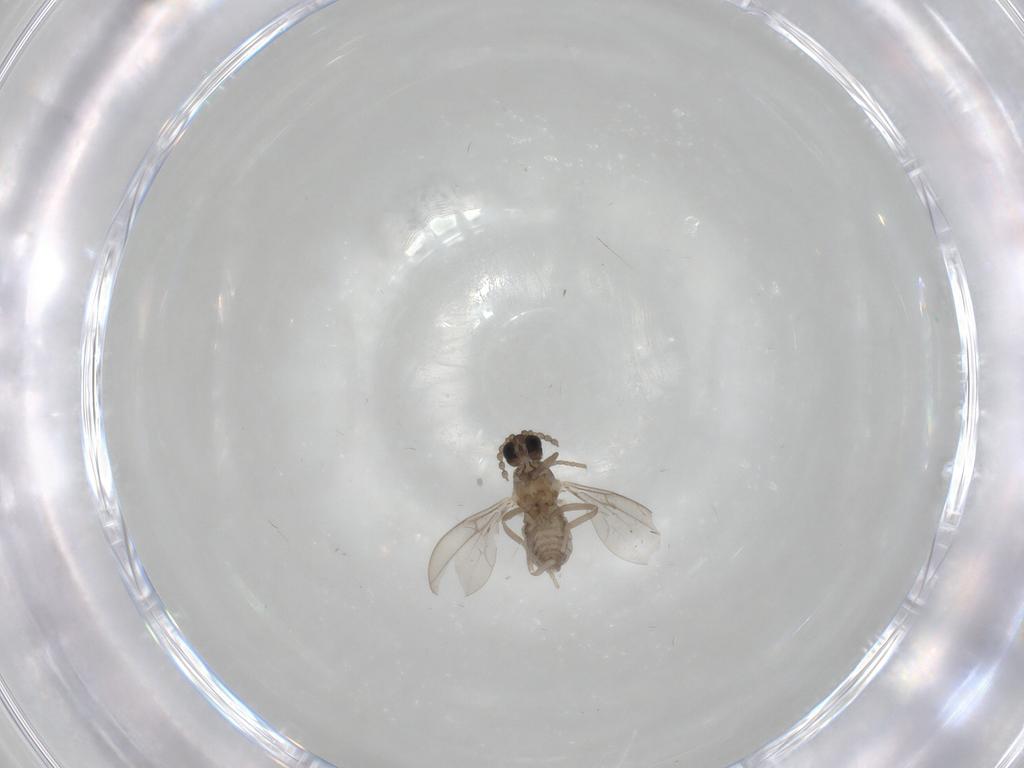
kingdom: Animalia
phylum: Arthropoda
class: Insecta
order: Diptera
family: Cecidomyiidae
